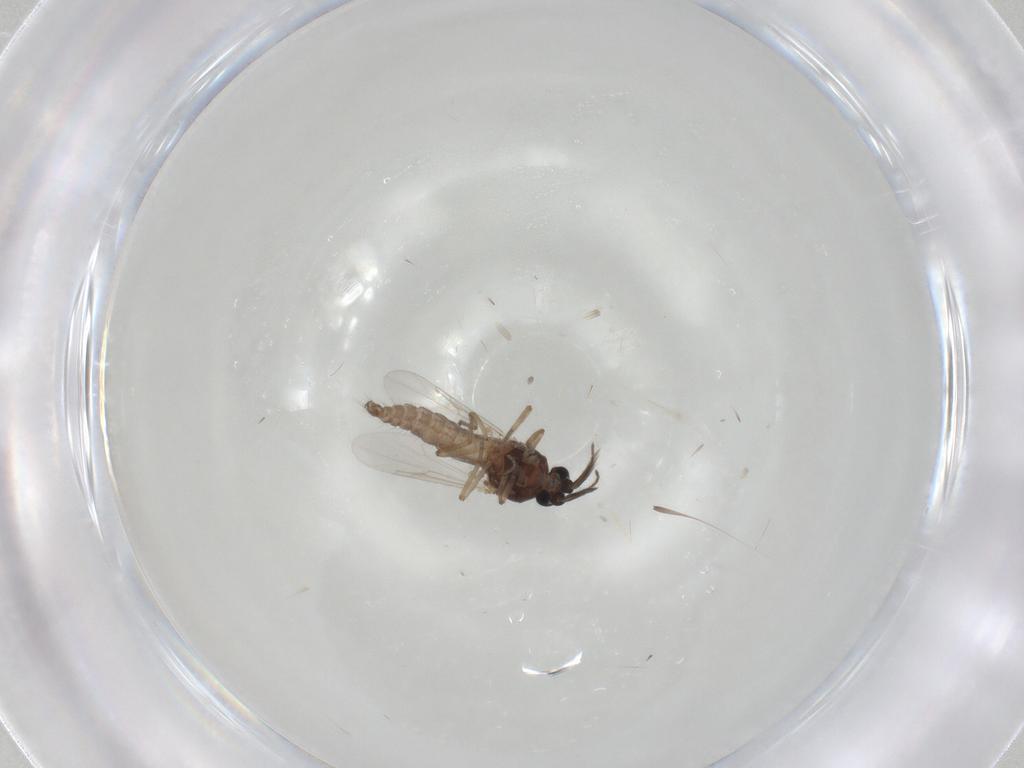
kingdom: Animalia
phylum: Arthropoda
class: Insecta
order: Diptera
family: Ceratopogonidae
